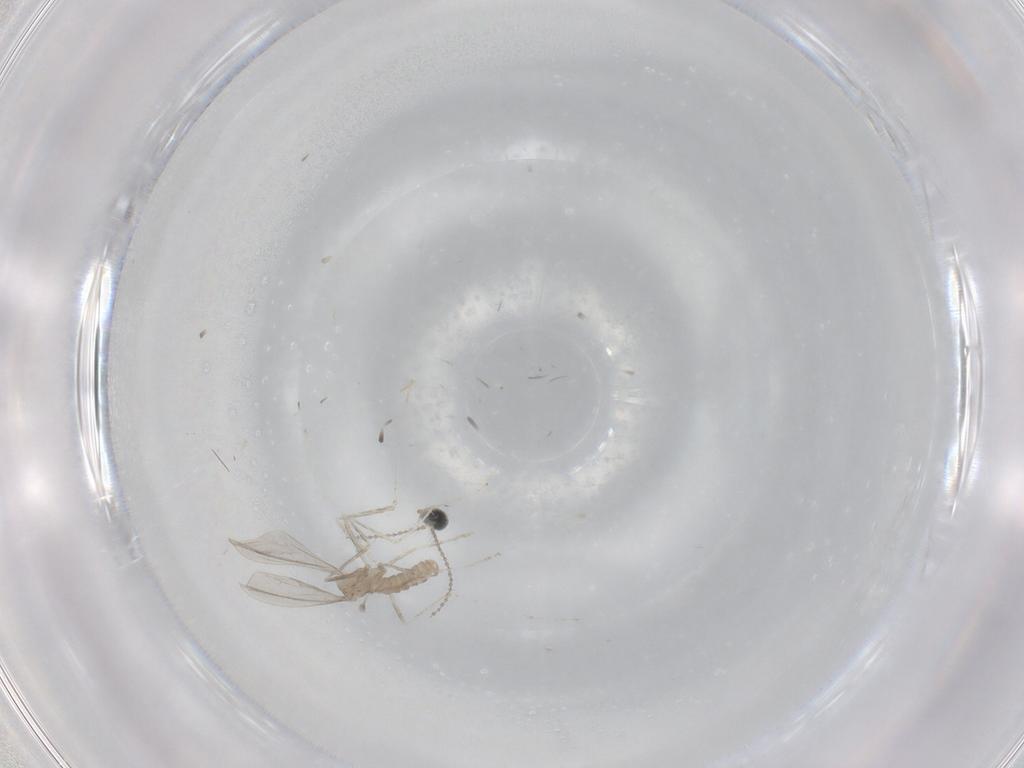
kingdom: Animalia
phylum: Arthropoda
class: Insecta
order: Diptera
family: Cecidomyiidae
